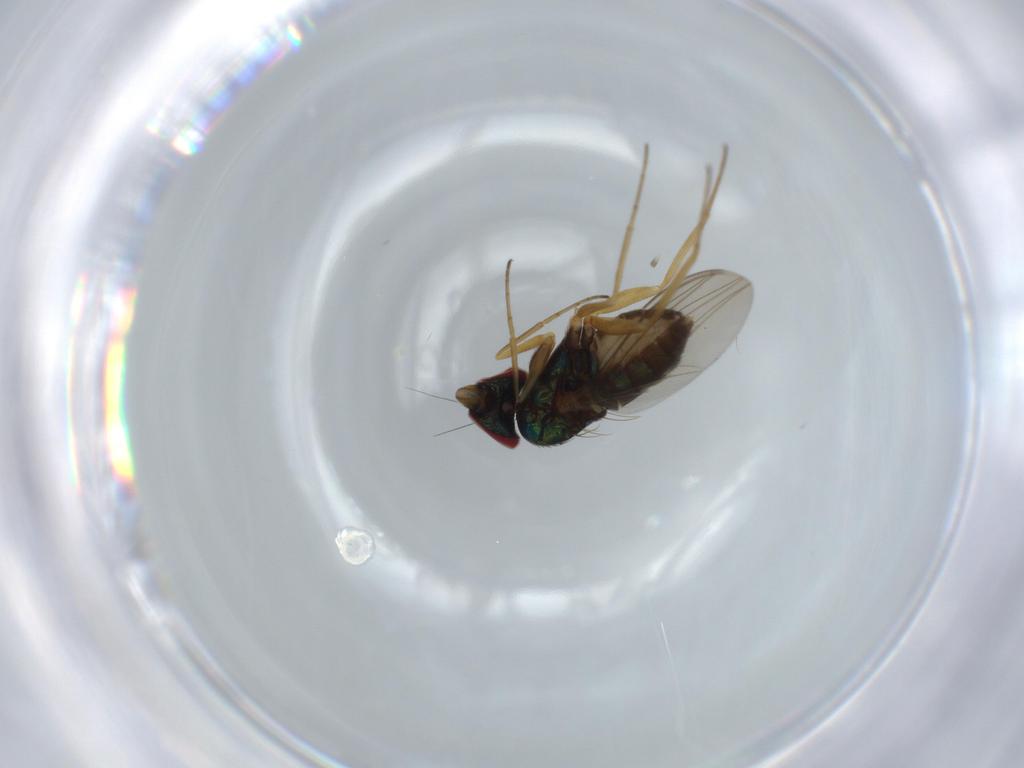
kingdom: Animalia
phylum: Arthropoda
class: Insecta
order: Diptera
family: Dolichopodidae
